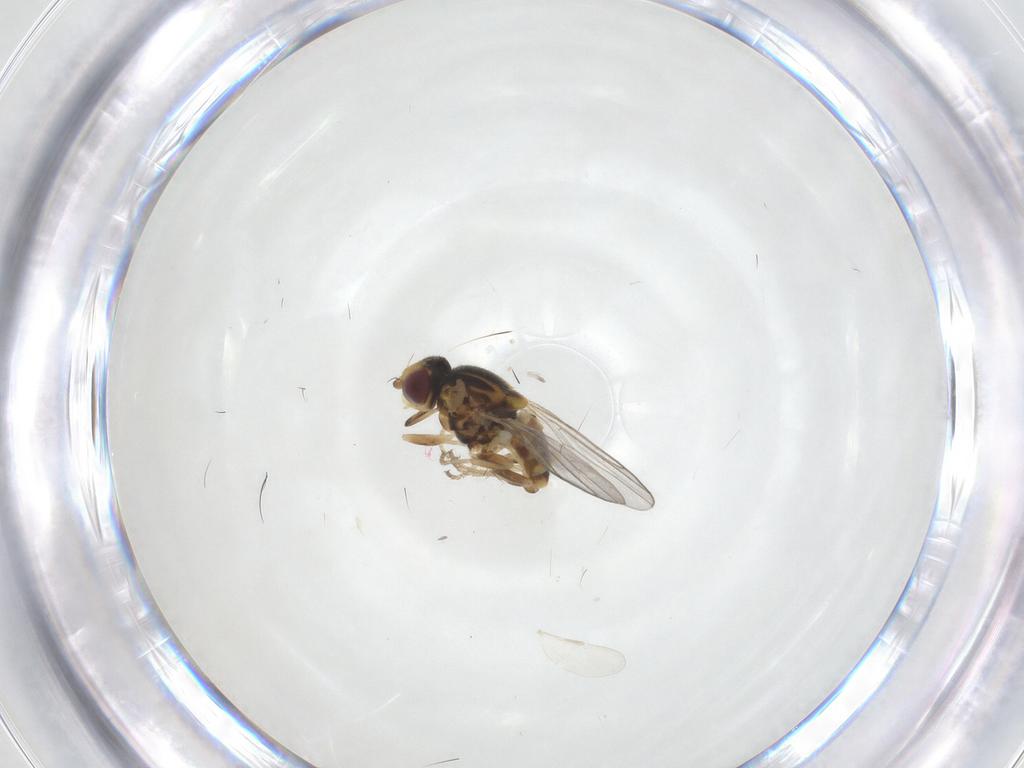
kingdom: Animalia
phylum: Arthropoda
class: Insecta
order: Diptera
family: Chloropidae
